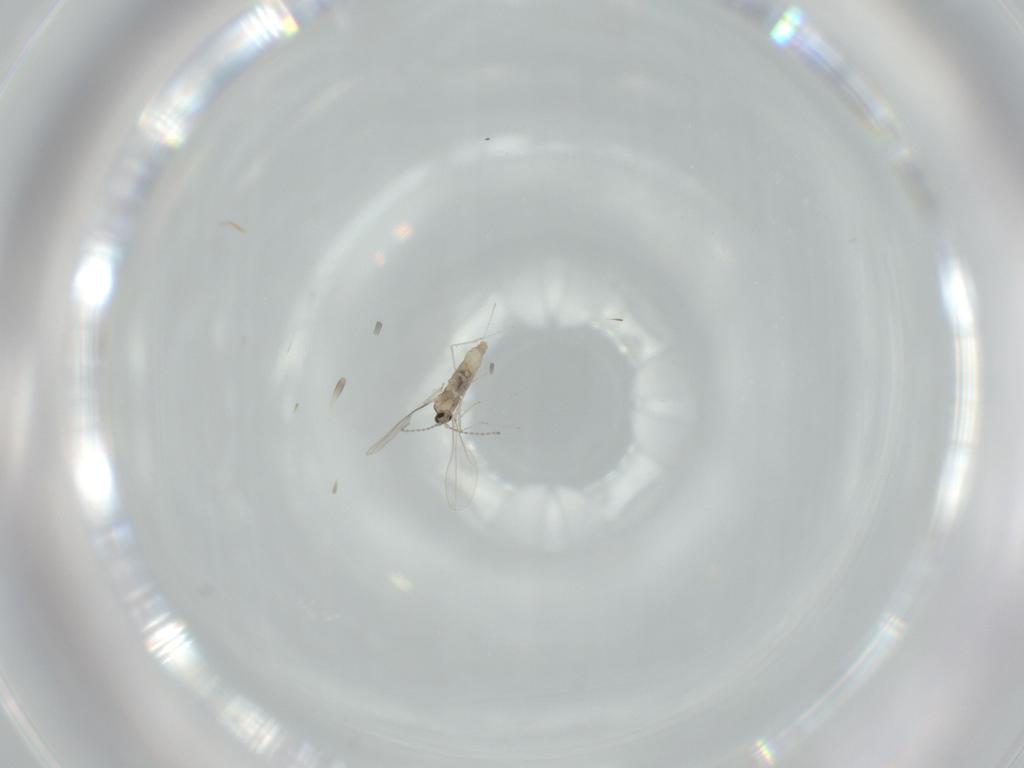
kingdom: Animalia
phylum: Arthropoda
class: Insecta
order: Diptera
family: Cecidomyiidae
